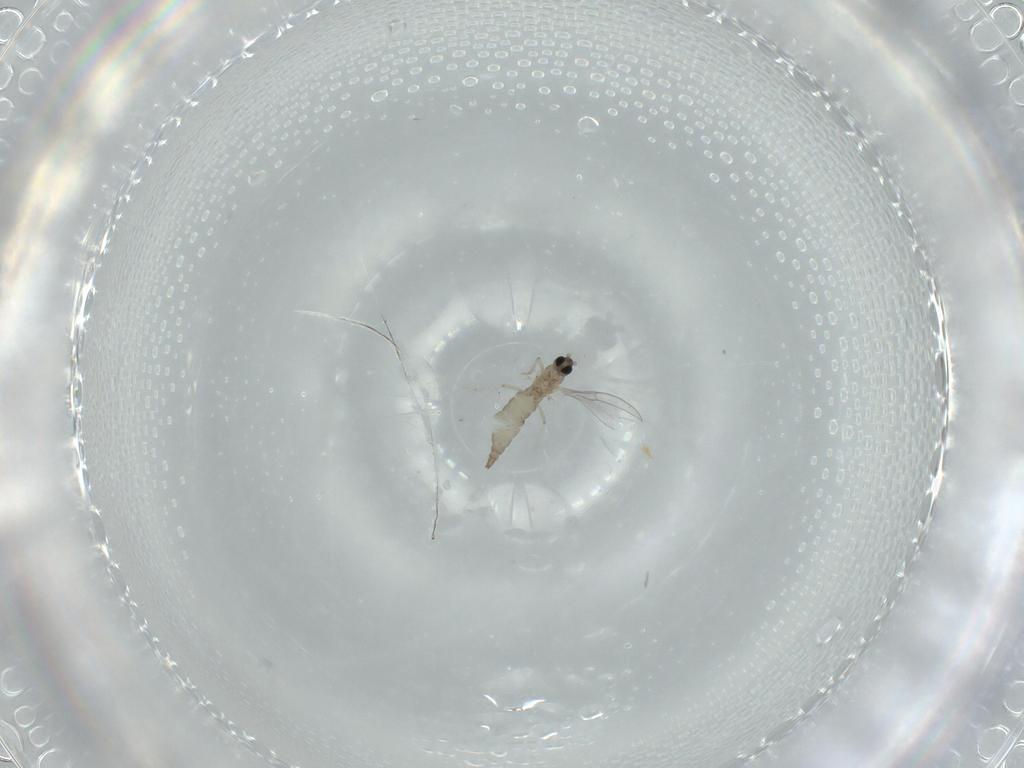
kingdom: Animalia
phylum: Arthropoda
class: Insecta
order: Diptera
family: Cecidomyiidae
